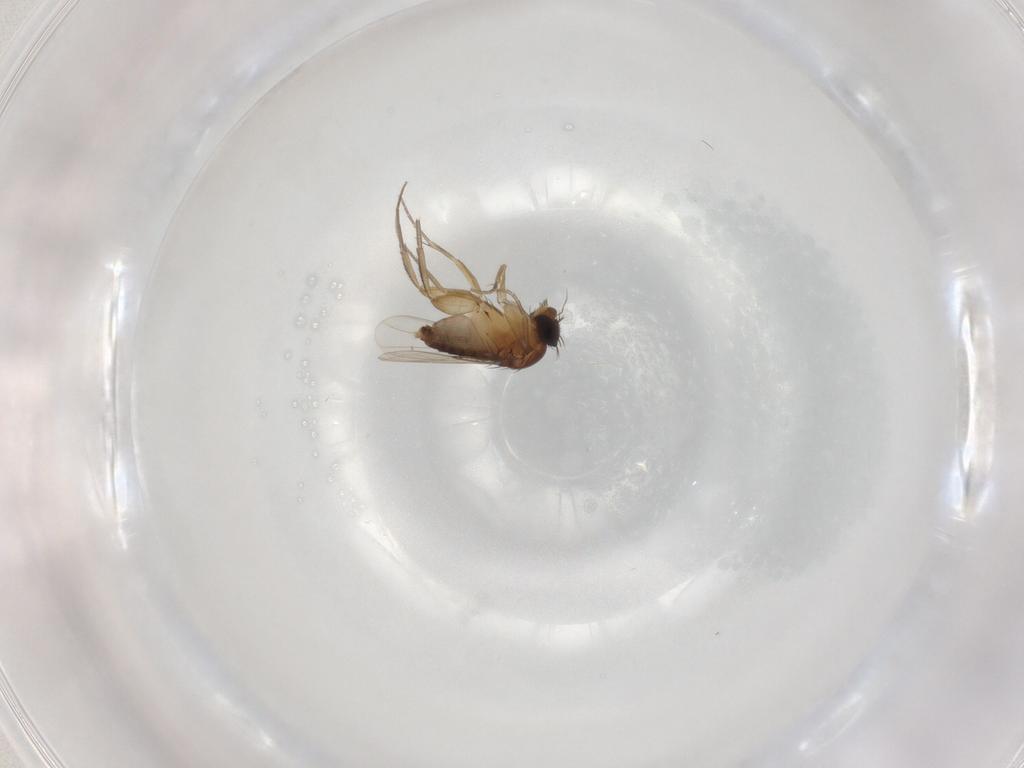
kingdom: Animalia
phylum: Arthropoda
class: Insecta
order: Diptera
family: Phoridae
